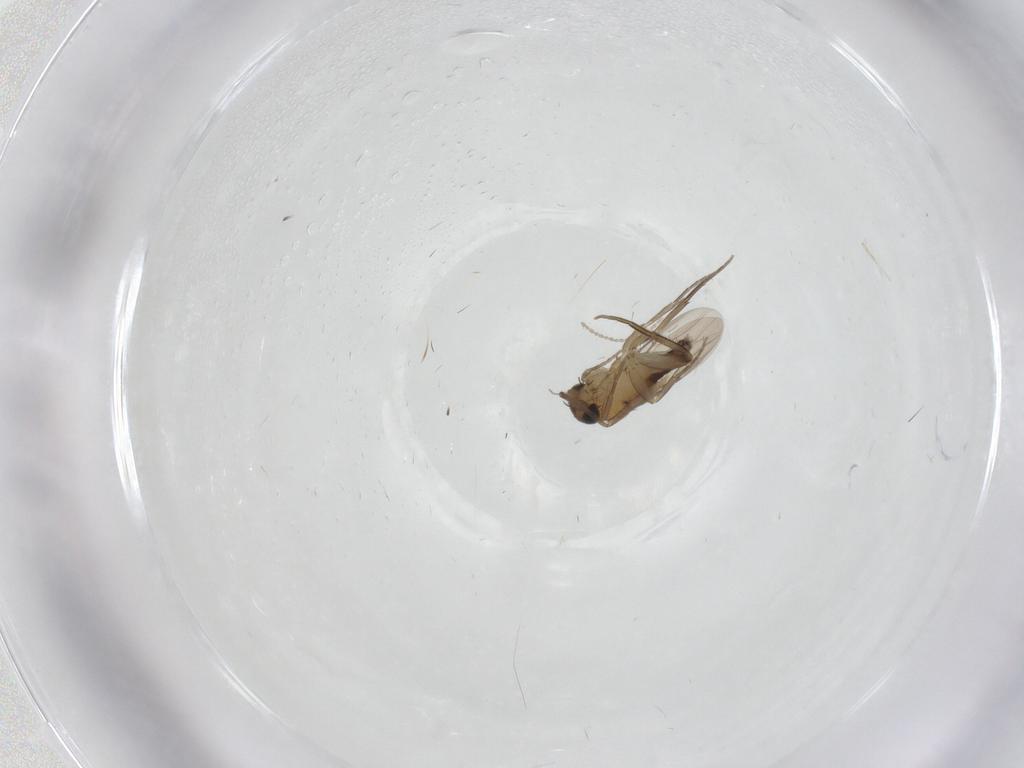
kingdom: Animalia
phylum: Arthropoda
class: Insecta
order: Diptera
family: Phoridae
